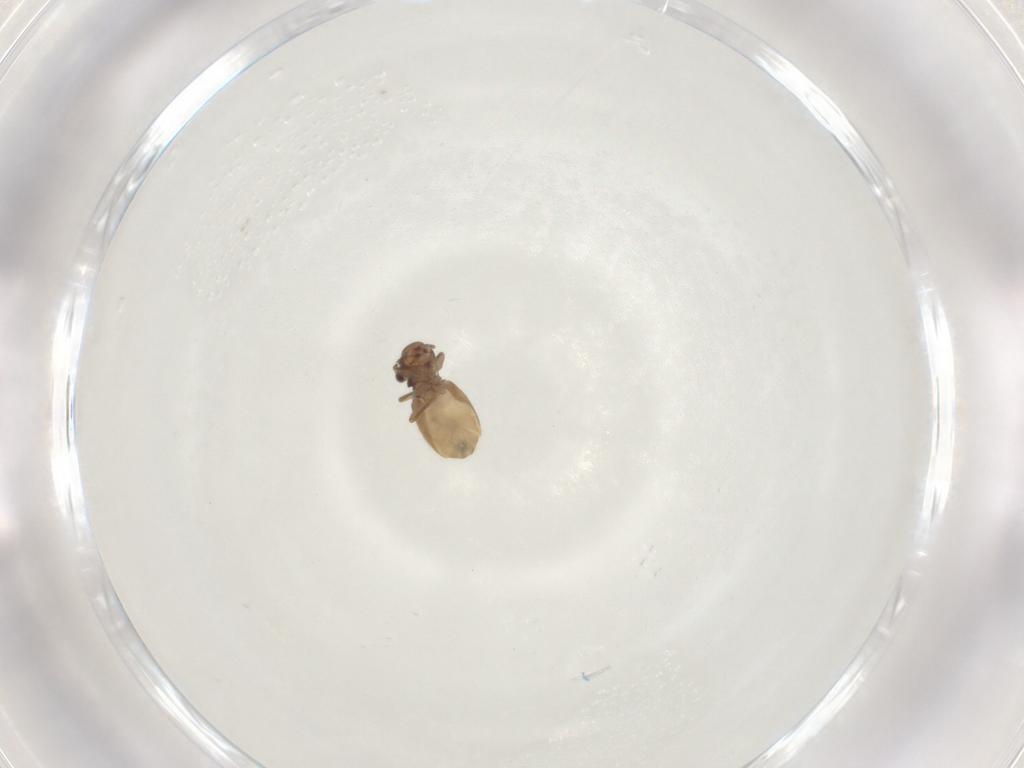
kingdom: Animalia
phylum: Arthropoda
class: Insecta
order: Psocodea
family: Trogiidae
